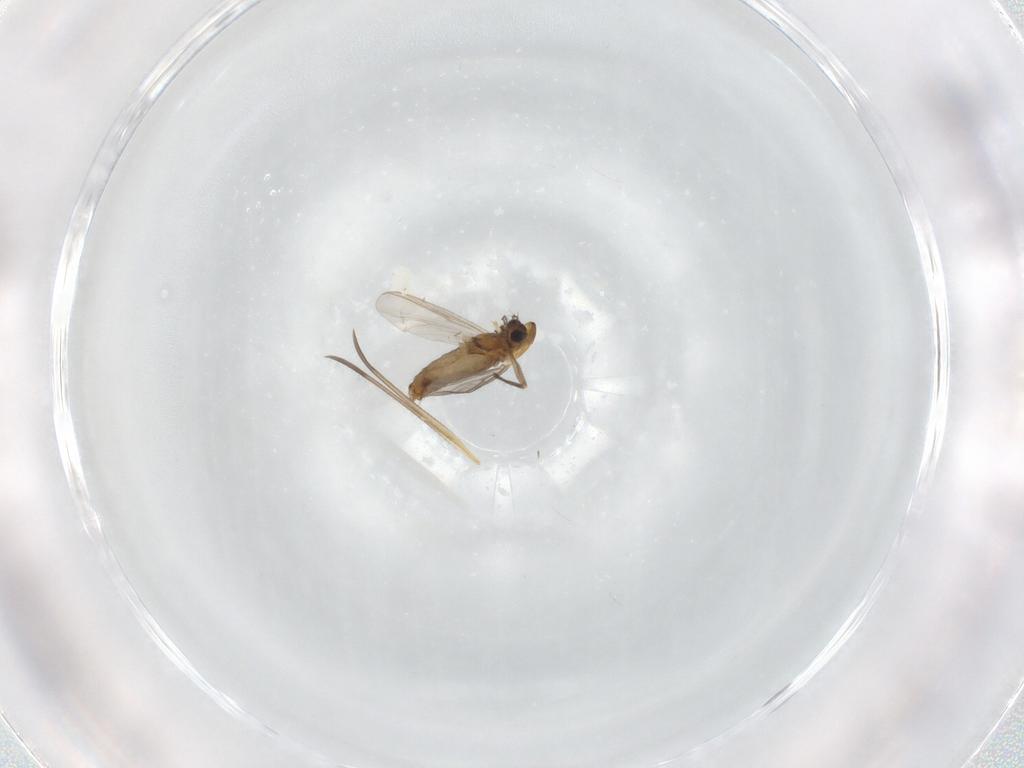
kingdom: Animalia
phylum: Arthropoda
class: Insecta
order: Diptera
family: Chironomidae
